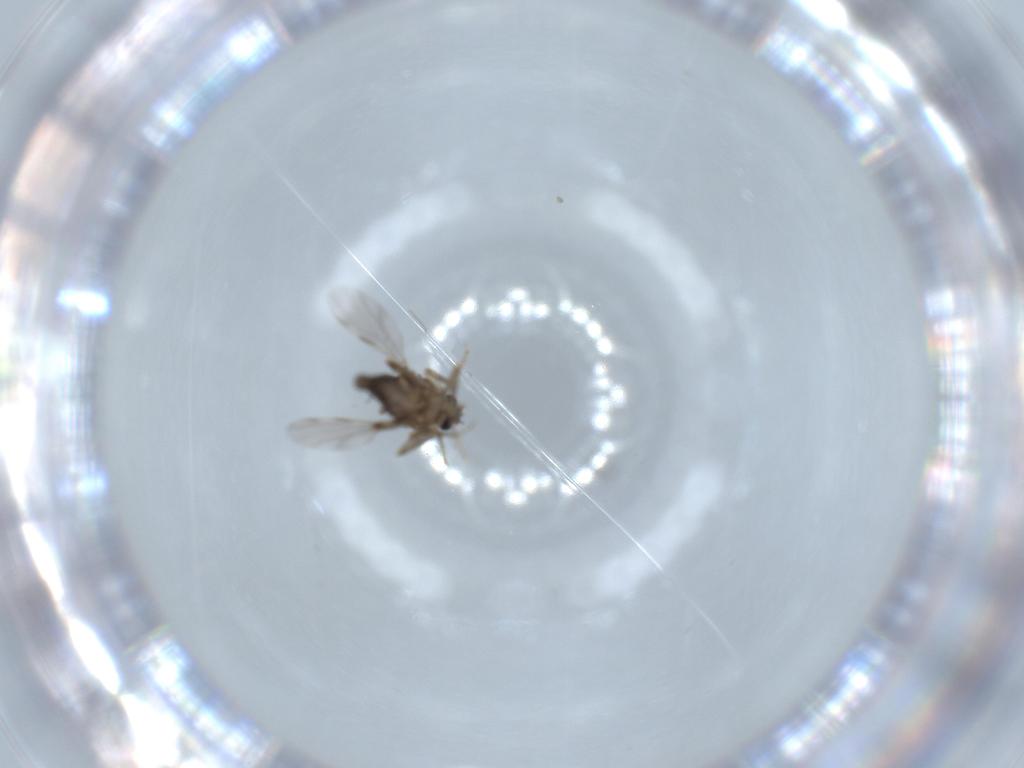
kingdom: Animalia
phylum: Arthropoda
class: Insecta
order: Diptera
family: Ceratopogonidae
